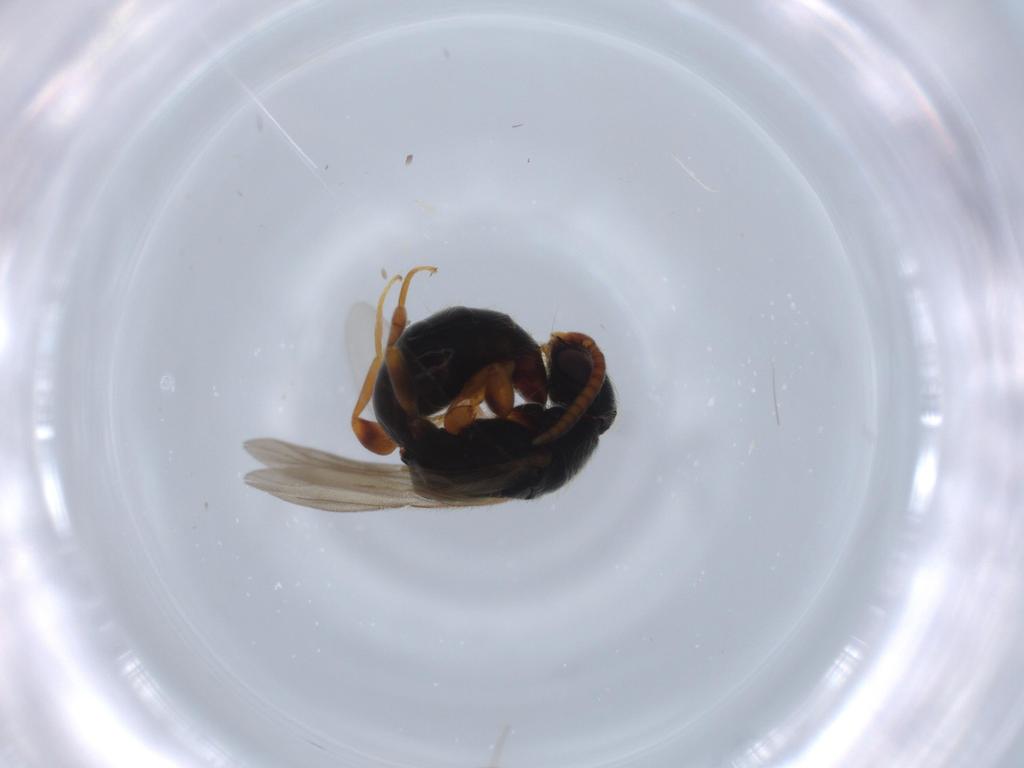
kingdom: Animalia
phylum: Arthropoda
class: Insecta
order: Hymenoptera
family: Bethylidae
